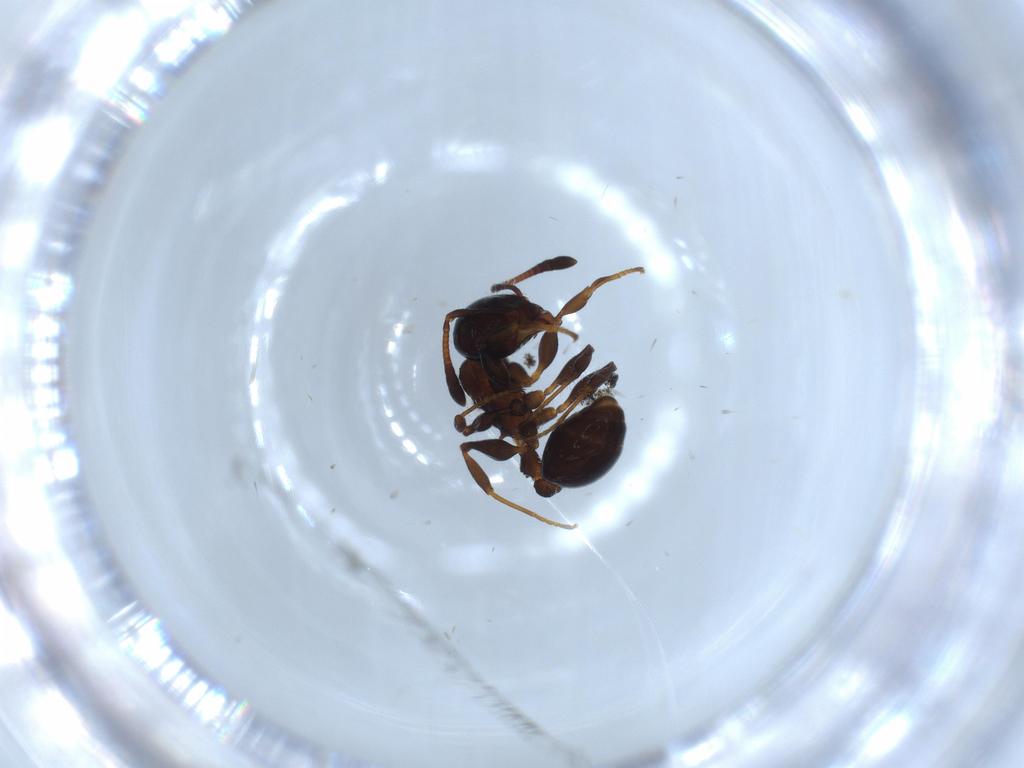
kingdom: Animalia
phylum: Arthropoda
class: Insecta
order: Hymenoptera
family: Formicidae
